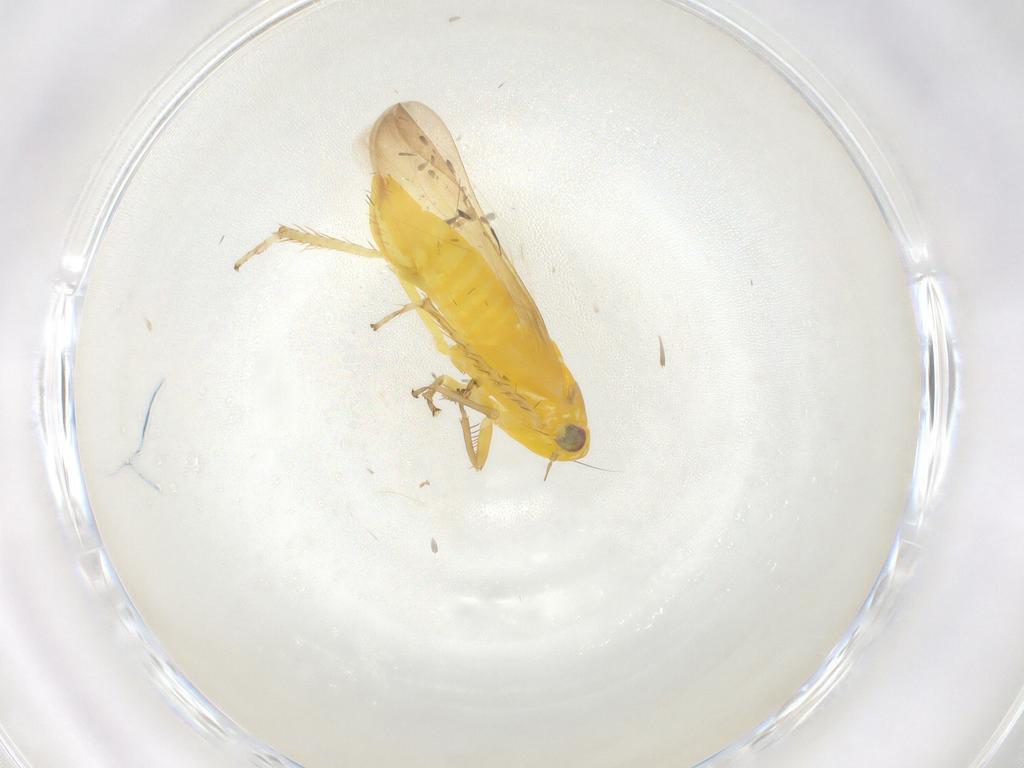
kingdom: Animalia
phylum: Arthropoda
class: Insecta
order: Hemiptera
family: Cicadellidae
